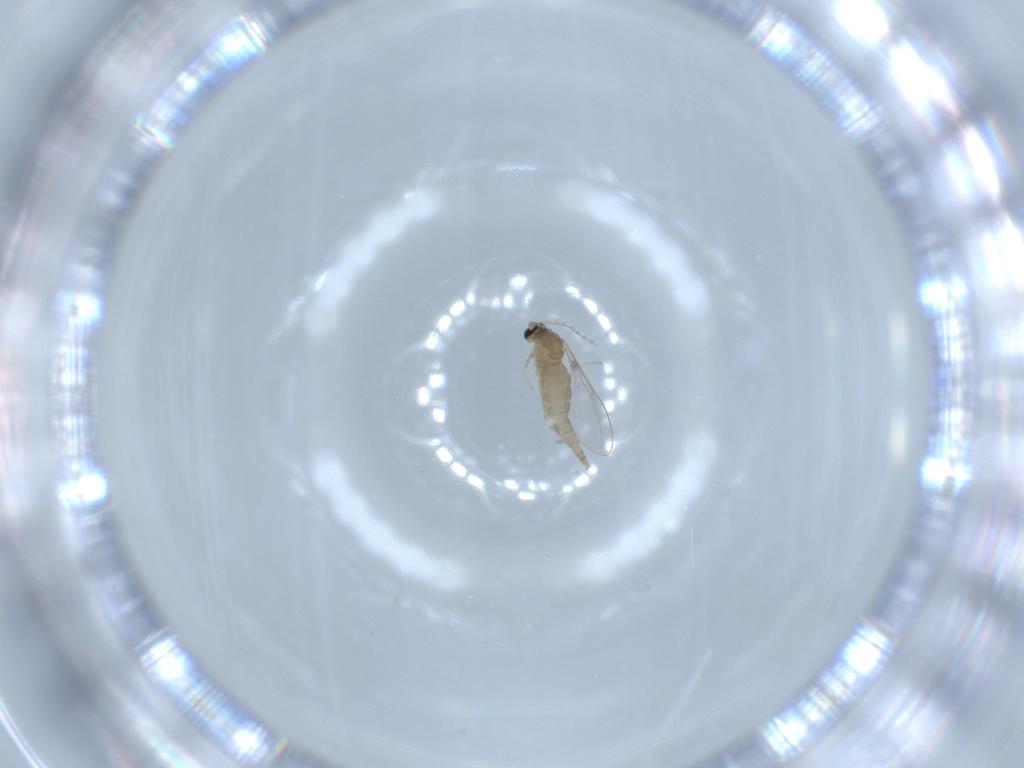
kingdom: Animalia
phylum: Arthropoda
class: Insecta
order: Diptera
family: Cecidomyiidae
